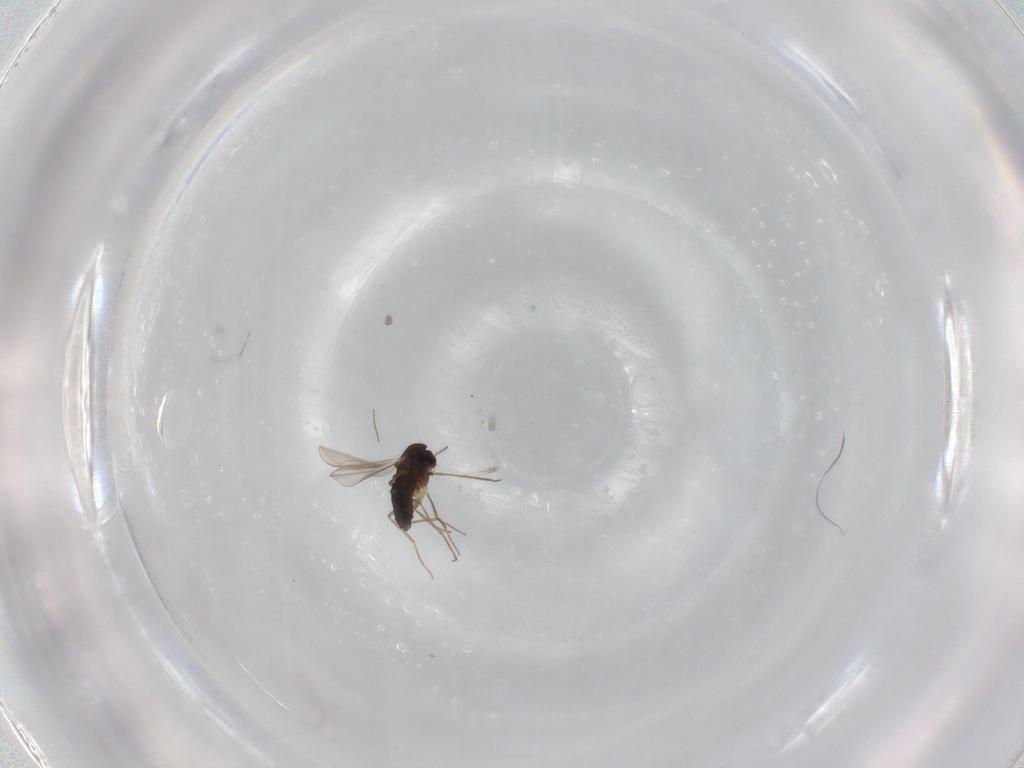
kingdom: Animalia
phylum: Arthropoda
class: Insecta
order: Diptera
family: Chironomidae
